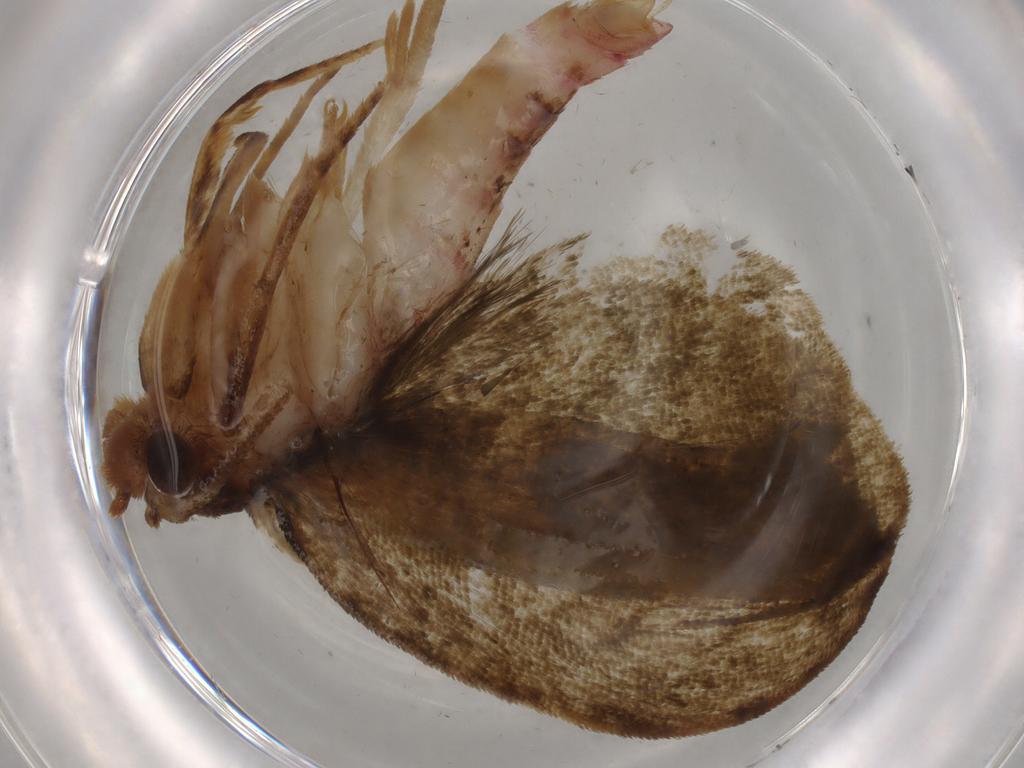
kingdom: Animalia
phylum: Arthropoda
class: Insecta
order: Lepidoptera
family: Geometridae
